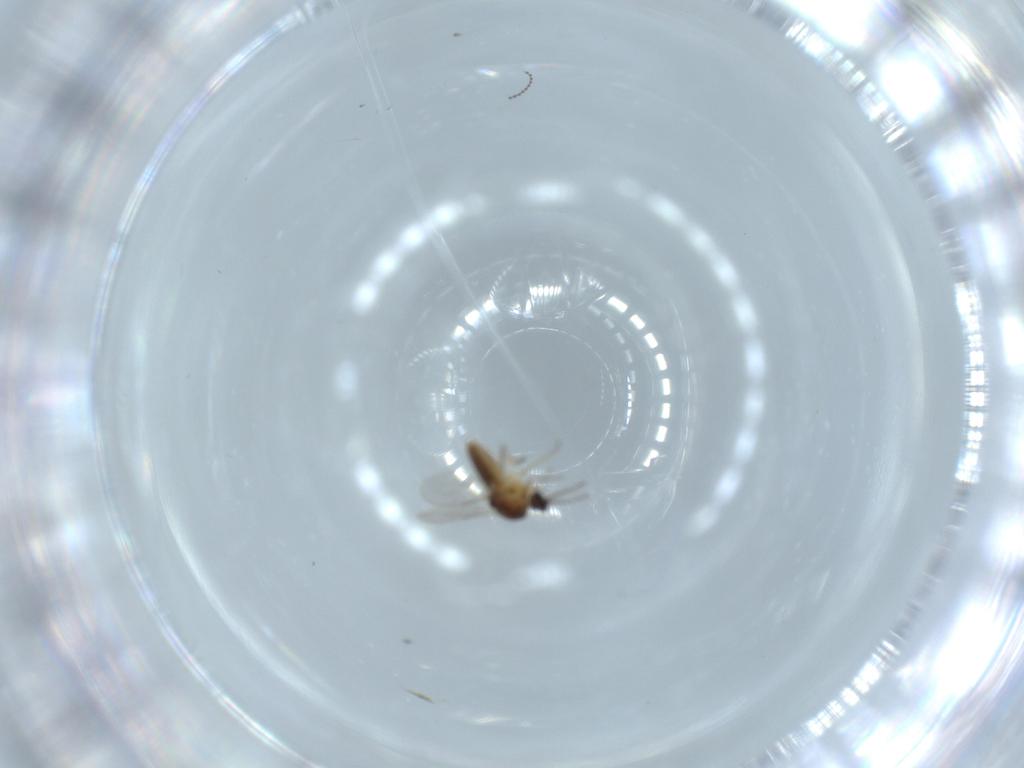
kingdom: Animalia
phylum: Arthropoda
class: Insecta
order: Diptera
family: Ceratopogonidae
